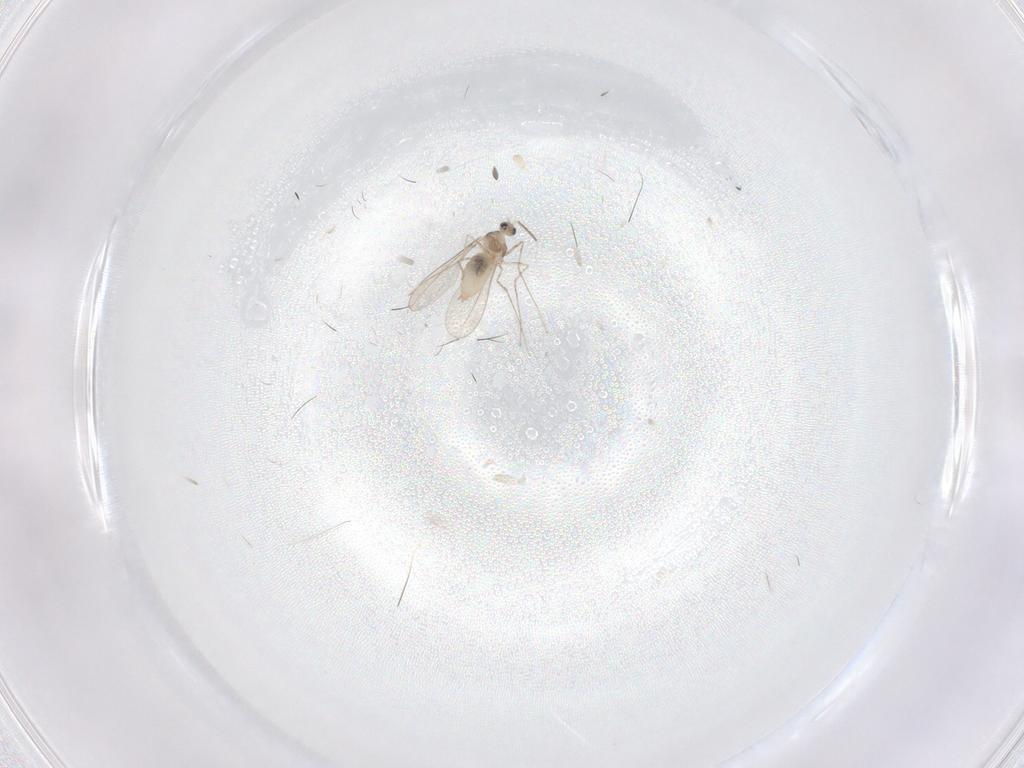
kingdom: Animalia
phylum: Arthropoda
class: Insecta
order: Diptera
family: Cecidomyiidae
